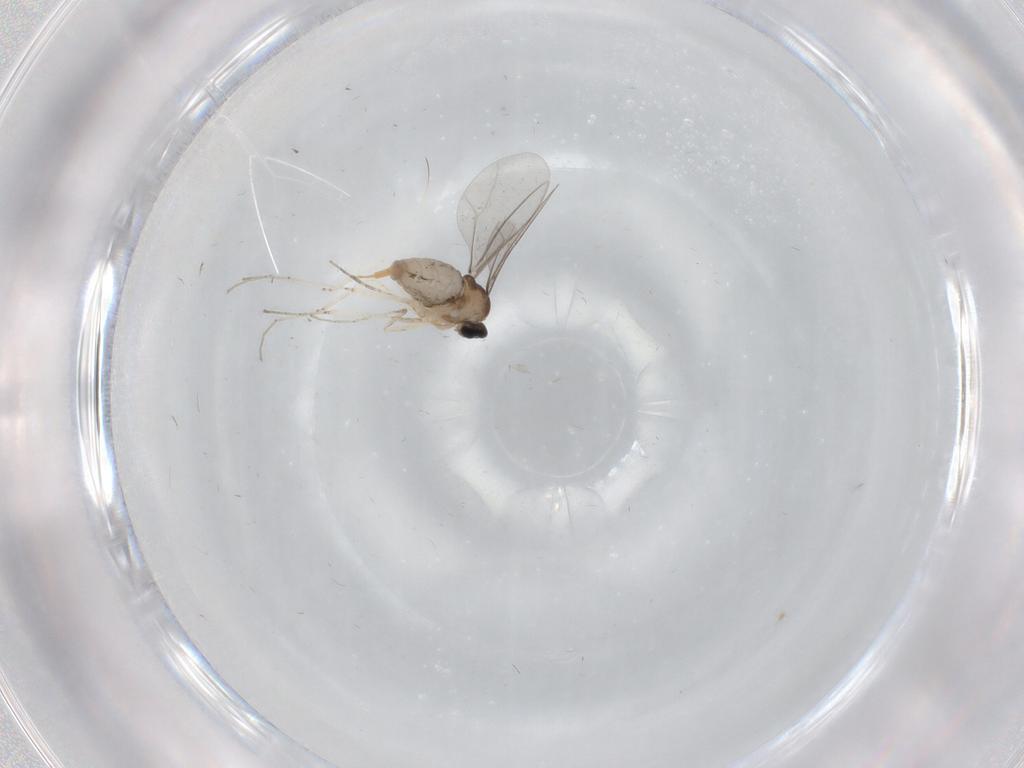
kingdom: Animalia
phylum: Arthropoda
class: Insecta
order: Diptera
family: Cecidomyiidae
